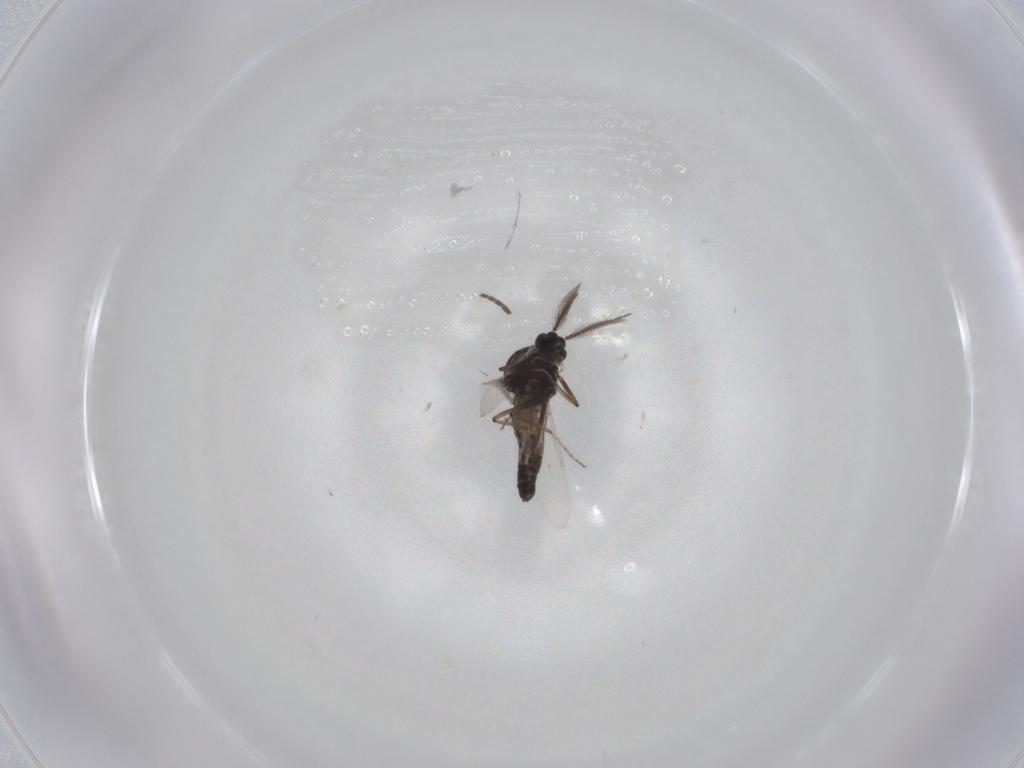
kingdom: Animalia
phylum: Arthropoda
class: Insecta
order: Diptera
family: Ceratopogonidae
